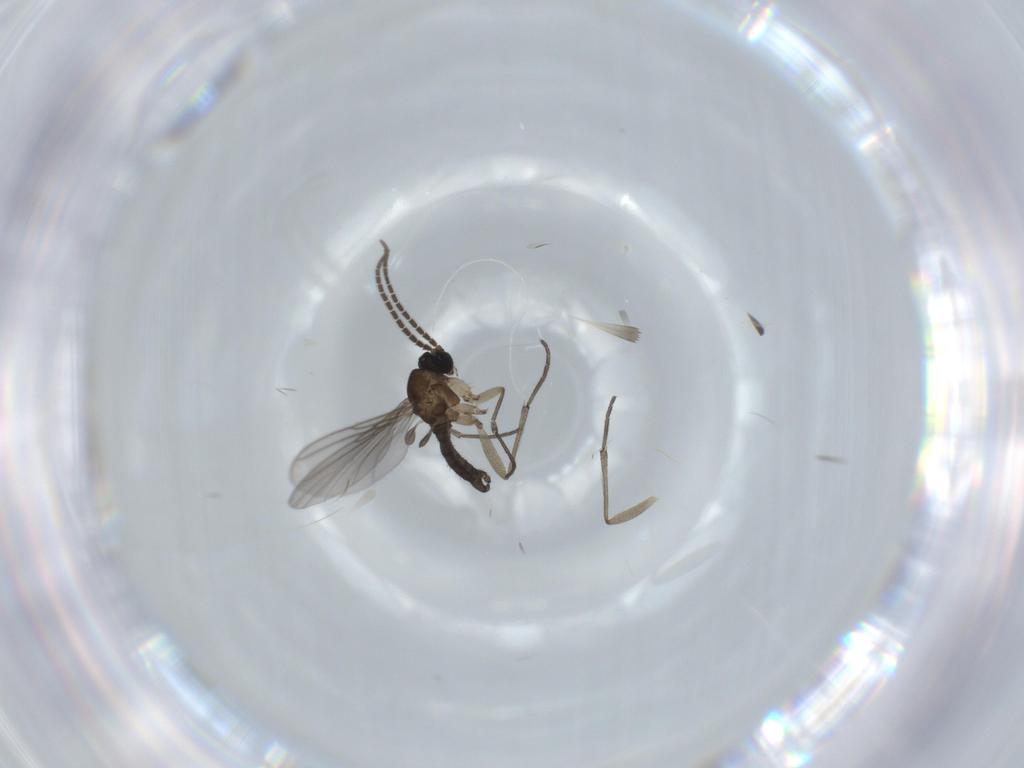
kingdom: Animalia
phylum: Arthropoda
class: Insecta
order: Diptera
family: Sciaridae
